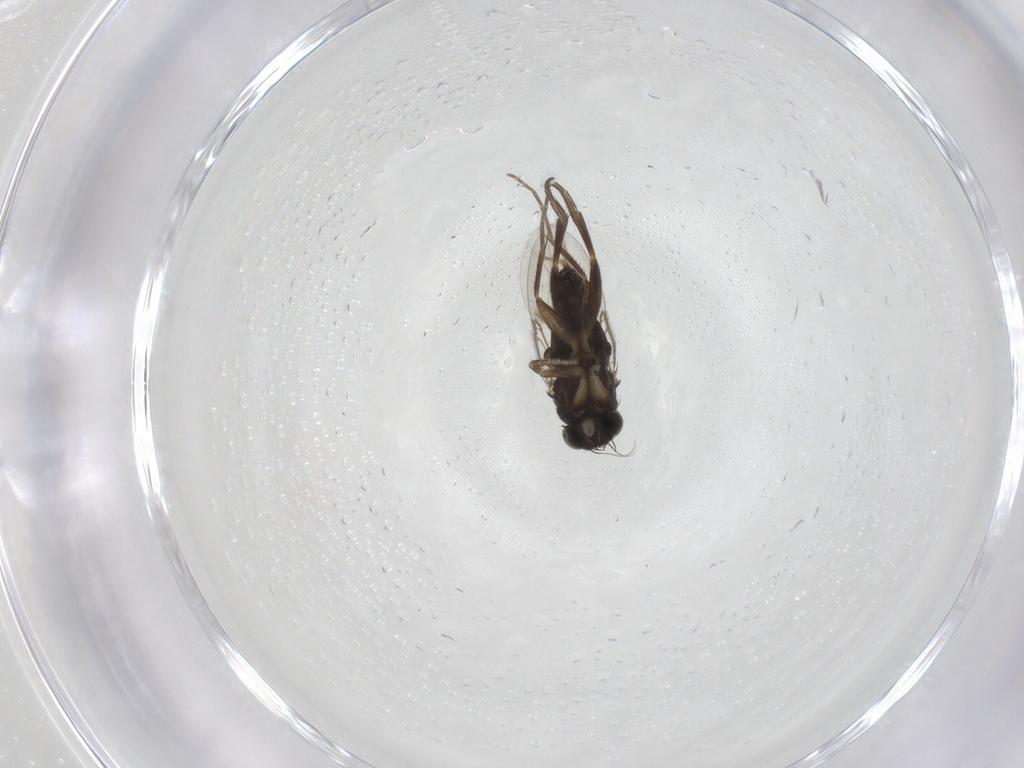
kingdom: Animalia
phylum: Arthropoda
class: Insecta
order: Diptera
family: Phoridae
